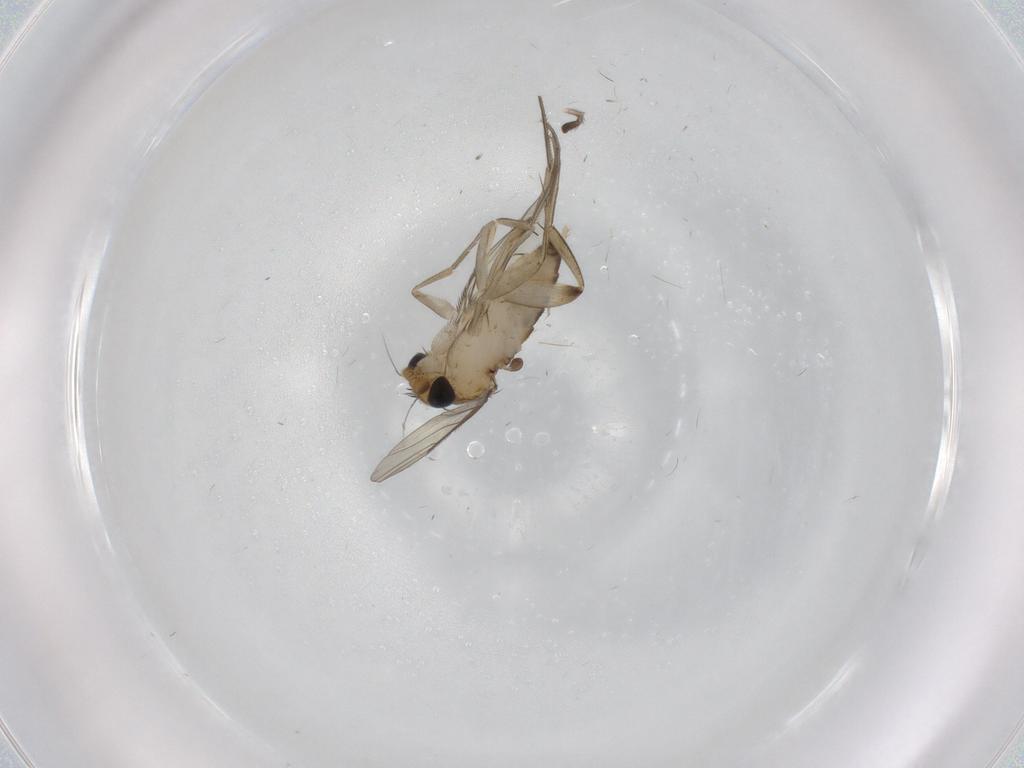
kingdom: Animalia
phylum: Arthropoda
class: Insecta
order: Diptera
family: Phoridae
